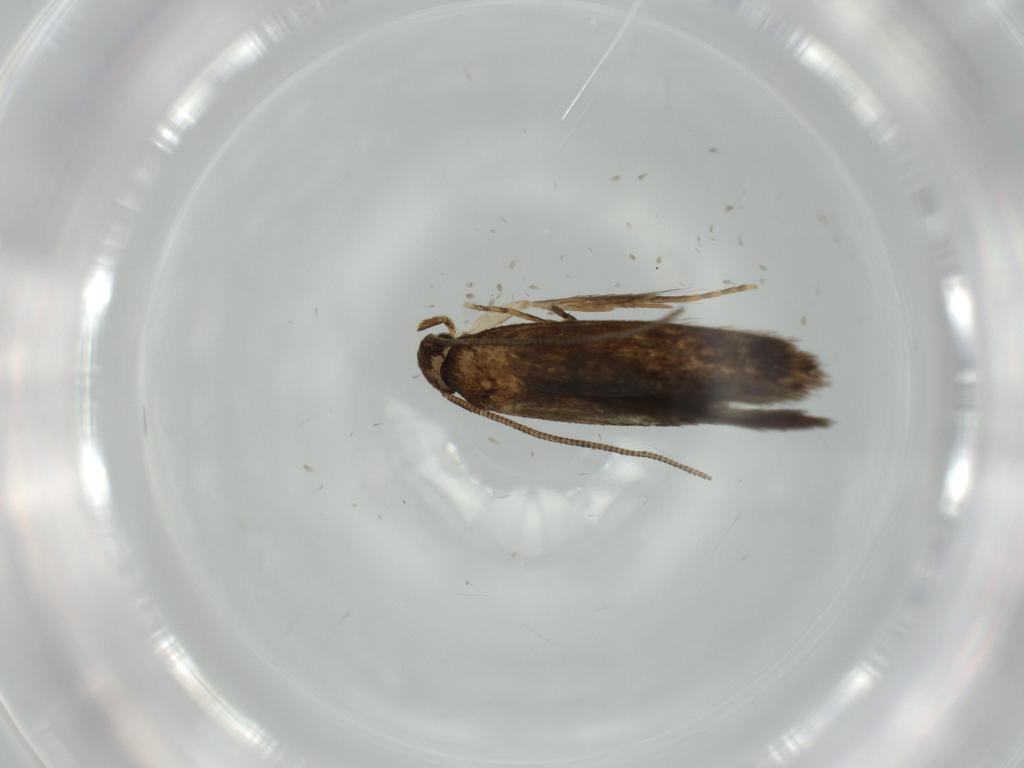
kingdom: Animalia
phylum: Arthropoda
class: Insecta
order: Lepidoptera
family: Tineidae
